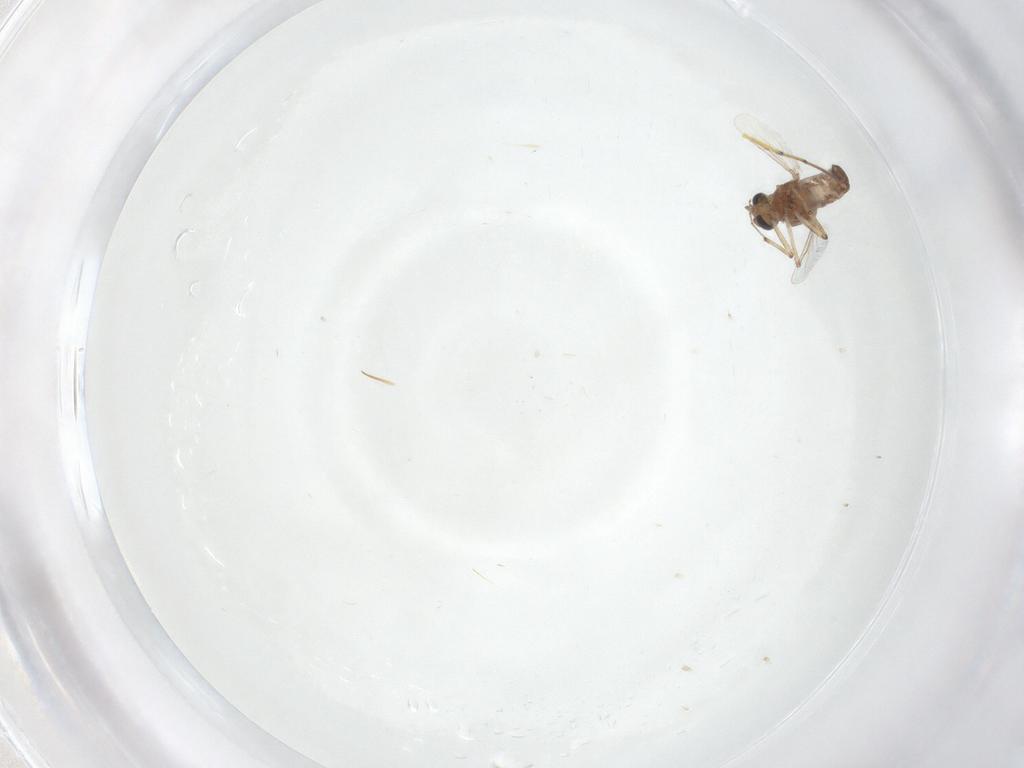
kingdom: Animalia
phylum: Arthropoda
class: Insecta
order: Diptera
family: Ceratopogonidae
